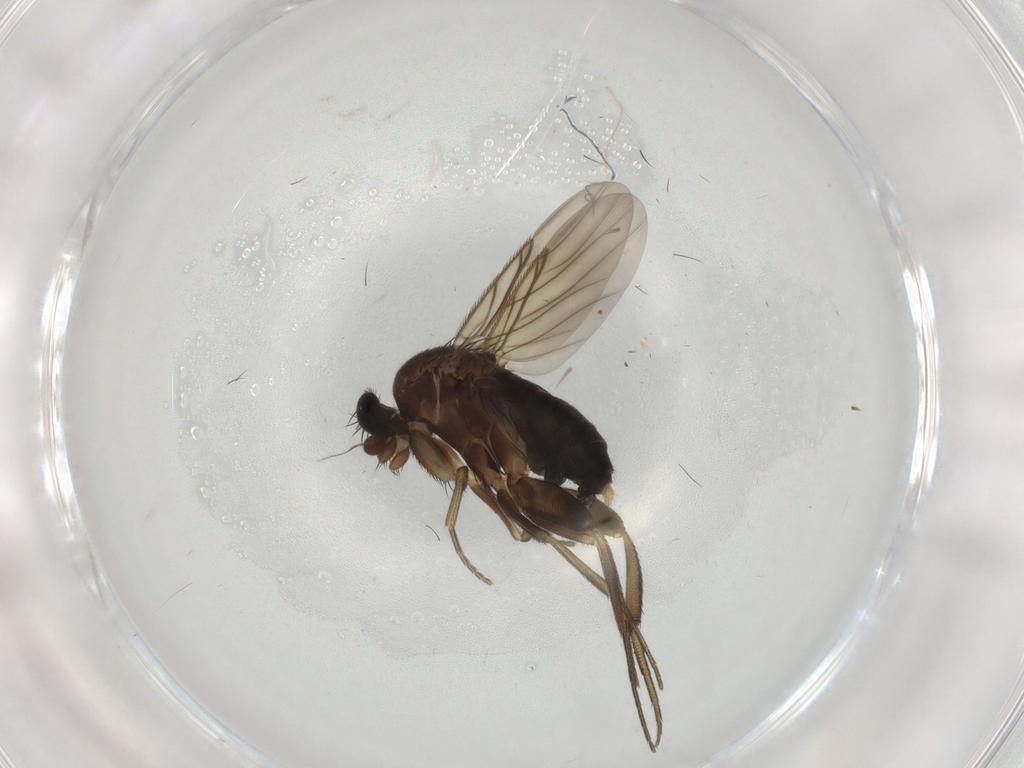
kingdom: Animalia
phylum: Arthropoda
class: Insecta
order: Diptera
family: Phoridae
